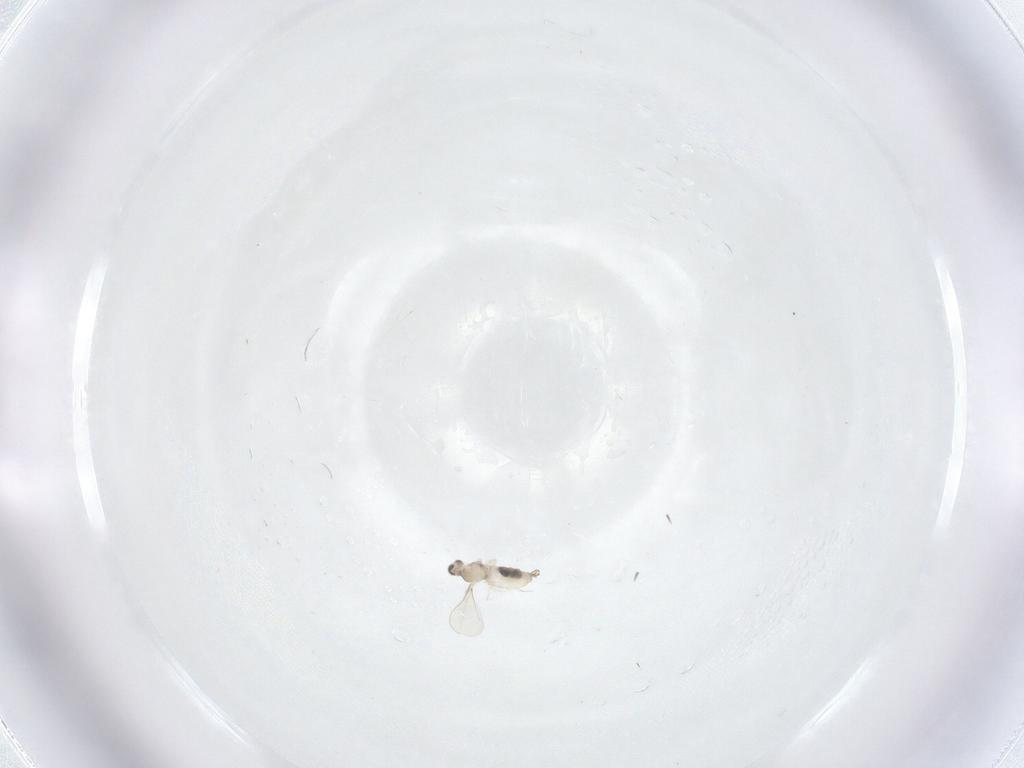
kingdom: Animalia
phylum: Arthropoda
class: Insecta
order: Diptera
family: Cecidomyiidae
